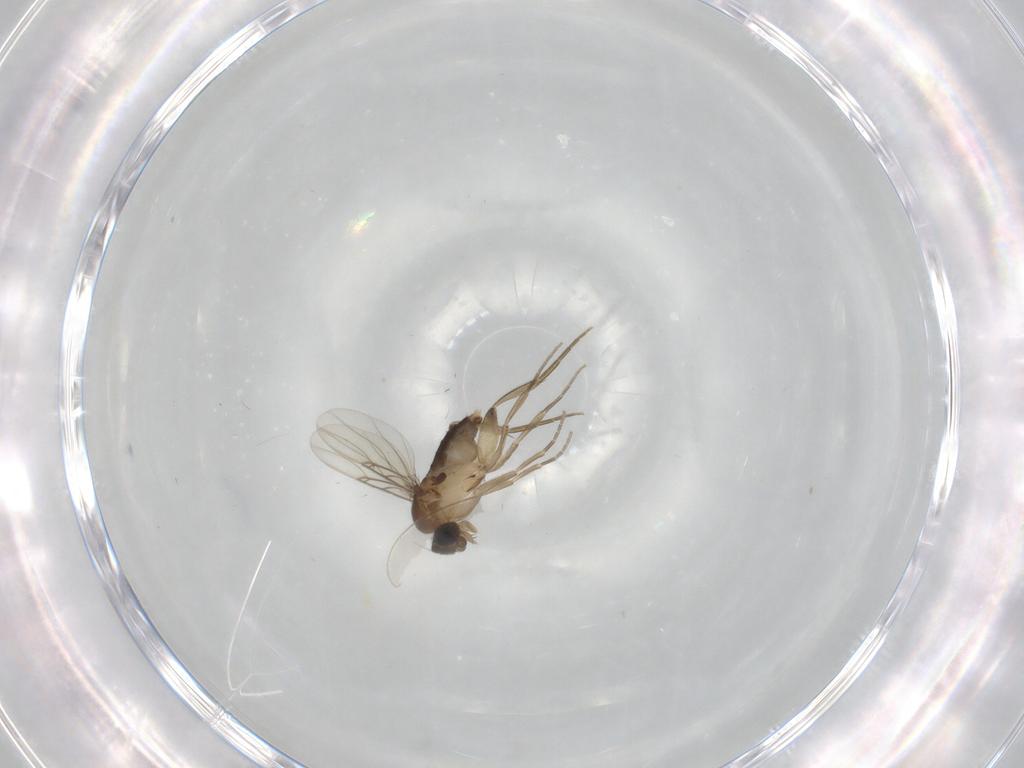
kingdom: Animalia
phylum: Arthropoda
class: Insecta
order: Diptera
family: Phoridae
